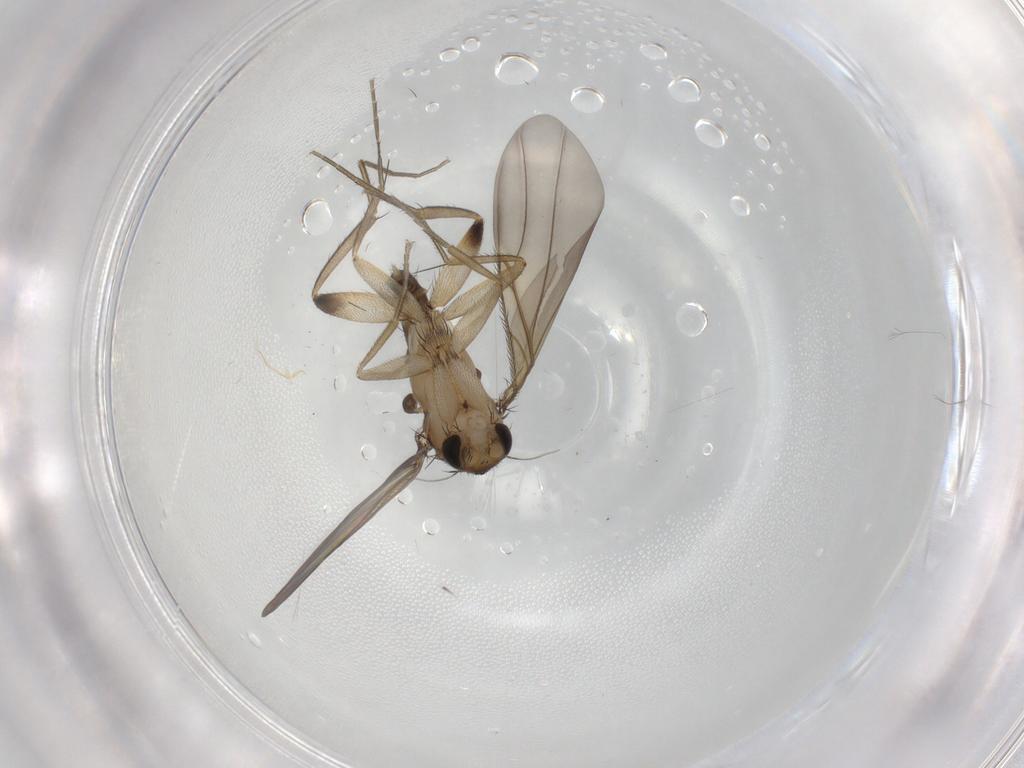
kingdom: Animalia
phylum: Arthropoda
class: Insecta
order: Diptera
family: Phoridae
